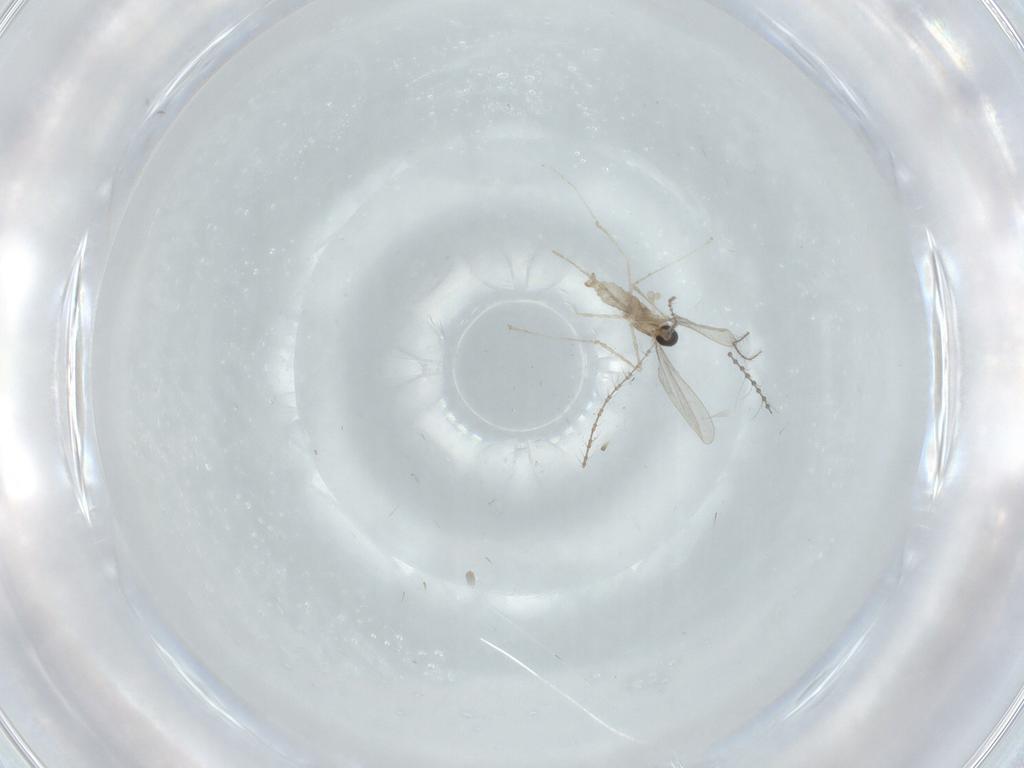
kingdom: Animalia
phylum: Arthropoda
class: Insecta
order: Diptera
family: Cecidomyiidae
